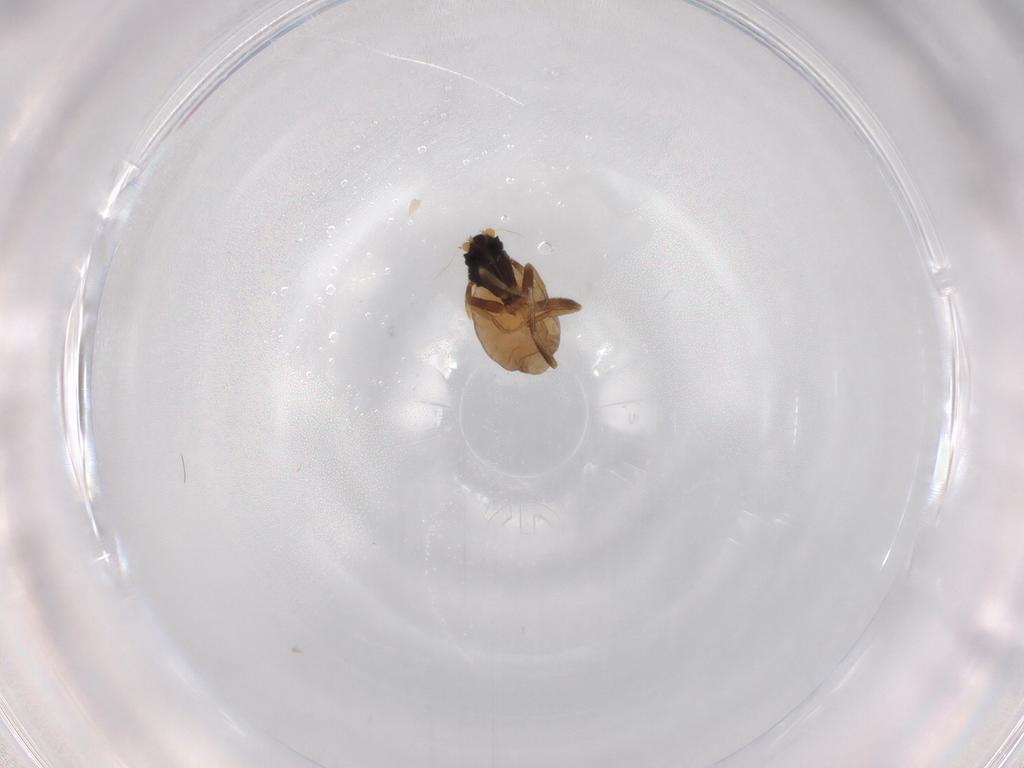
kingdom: Animalia
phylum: Arthropoda
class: Insecta
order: Diptera
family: Phoridae
